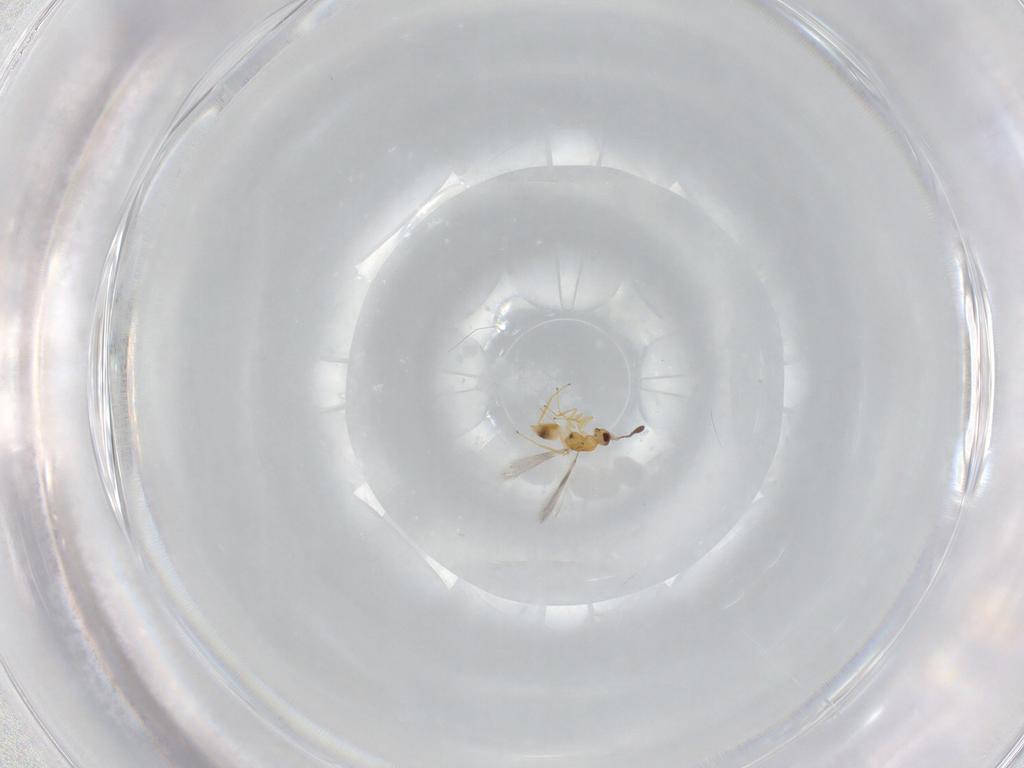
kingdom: Animalia
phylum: Arthropoda
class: Insecta
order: Hymenoptera
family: Mymaridae
